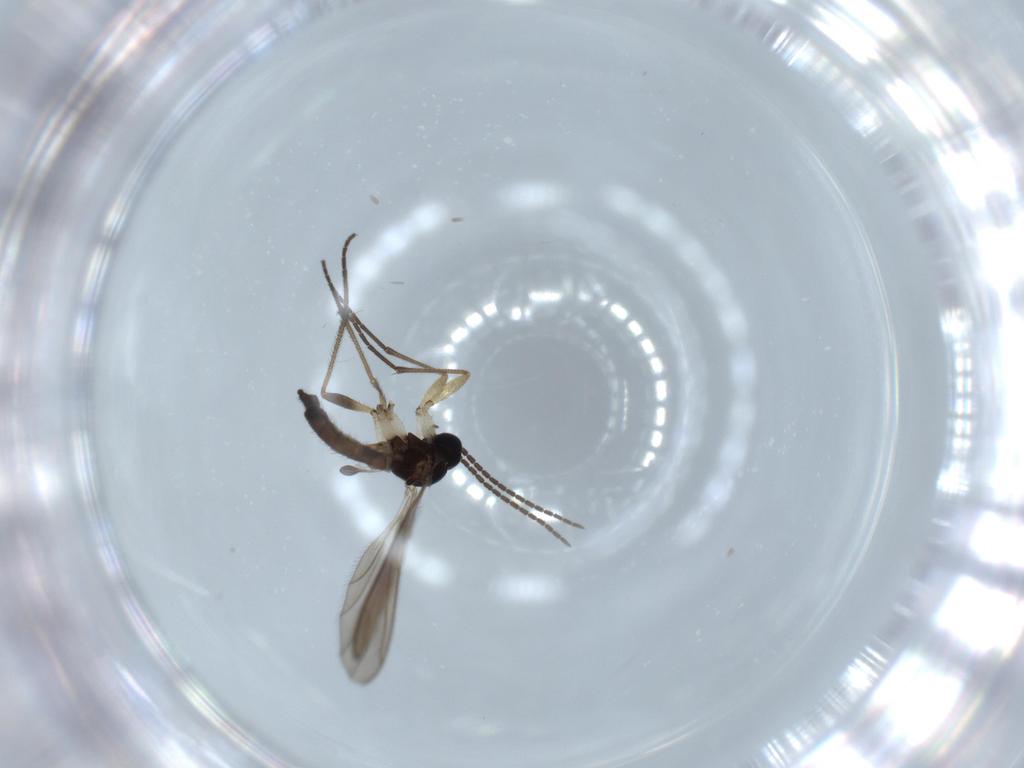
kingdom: Animalia
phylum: Arthropoda
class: Insecta
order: Diptera
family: Sciaridae
